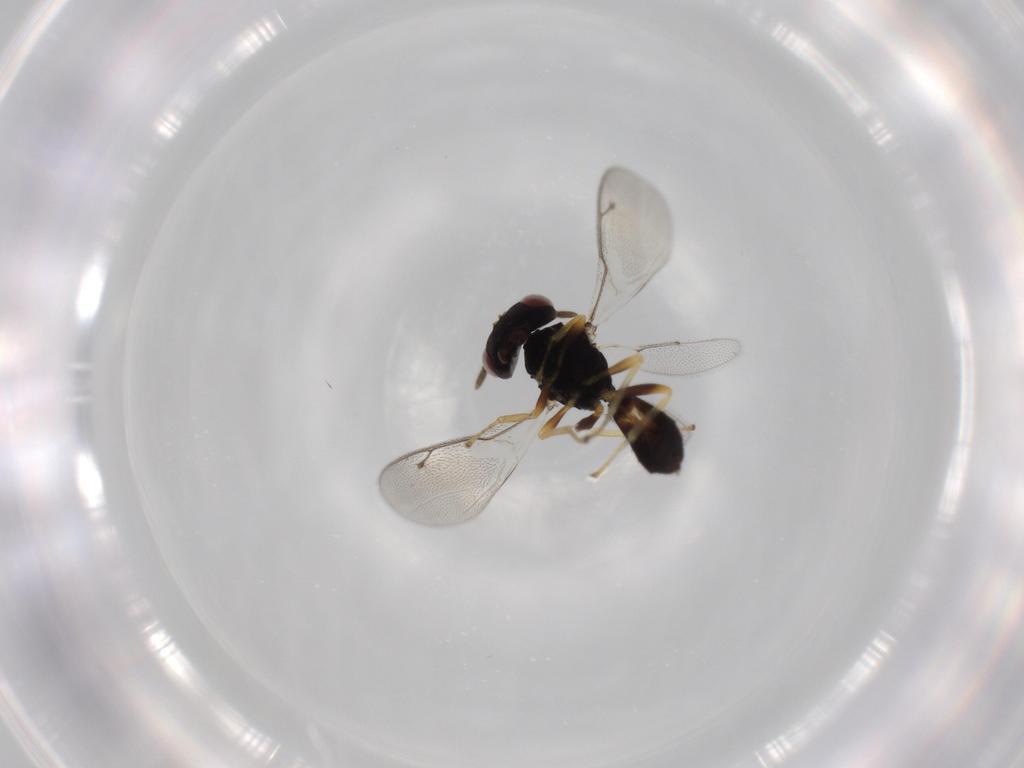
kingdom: Animalia
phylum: Arthropoda
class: Insecta
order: Hymenoptera
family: Pteromalidae
